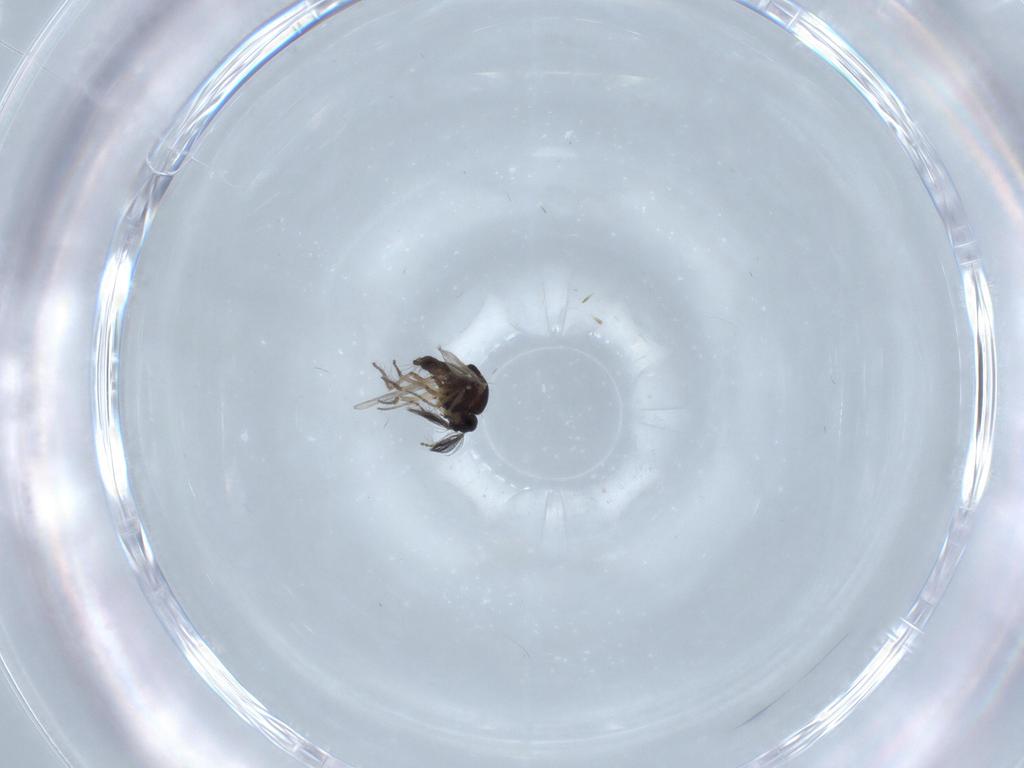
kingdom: Animalia
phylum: Arthropoda
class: Insecta
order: Diptera
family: Ceratopogonidae
